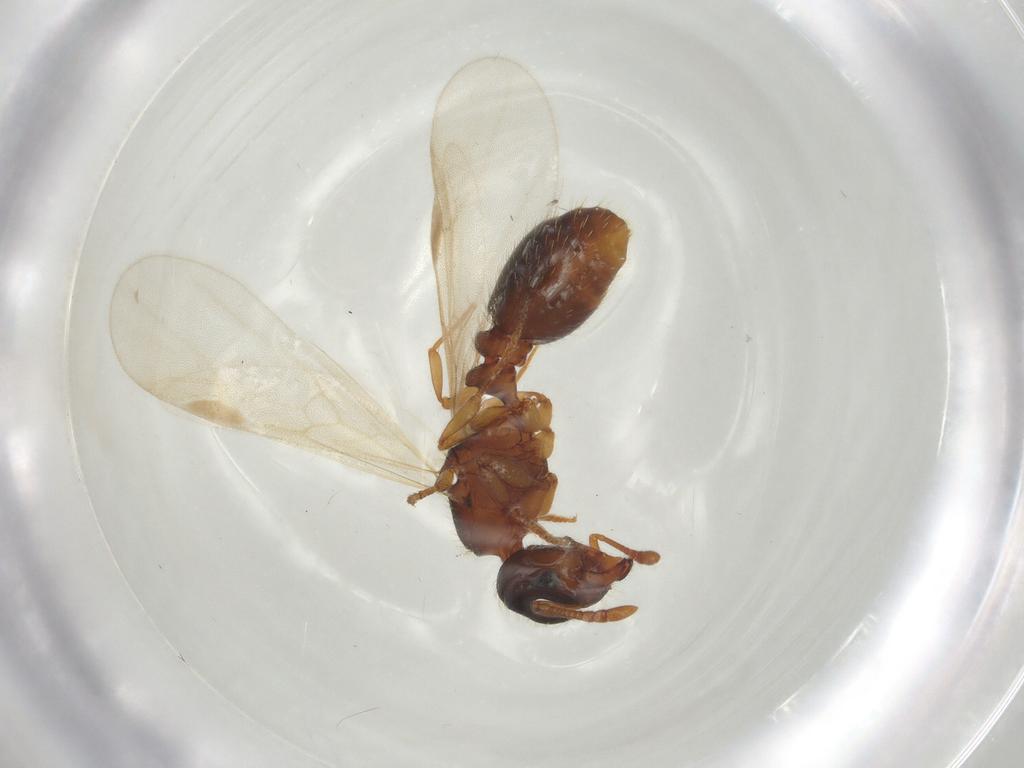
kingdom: Animalia
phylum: Arthropoda
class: Insecta
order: Hymenoptera
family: Formicidae
